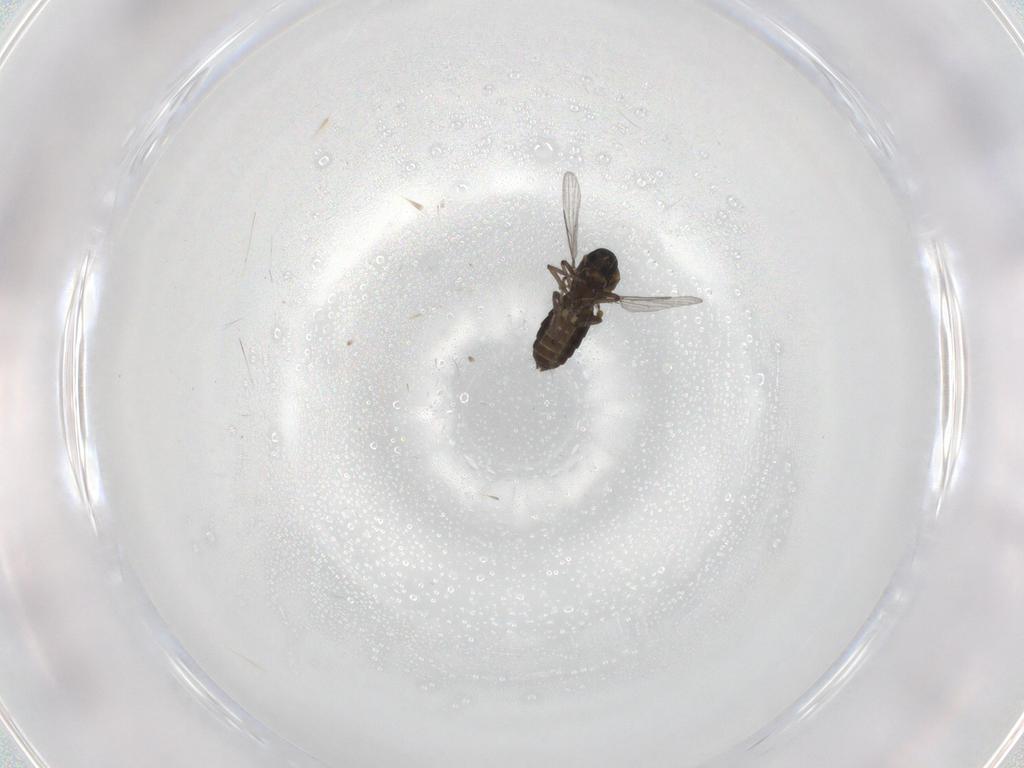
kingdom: Animalia
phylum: Arthropoda
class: Insecta
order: Diptera
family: Ceratopogonidae
